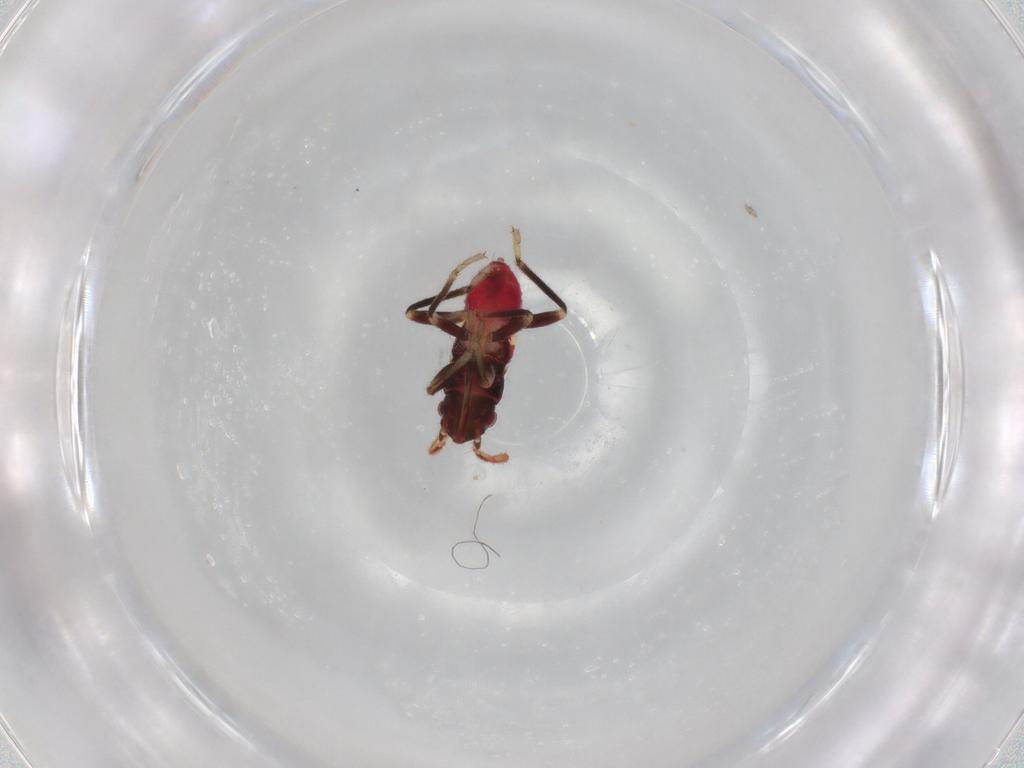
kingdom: Animalia
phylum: Arthropoda
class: Insecta
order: Hemiptera
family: Rhyparochromidae
